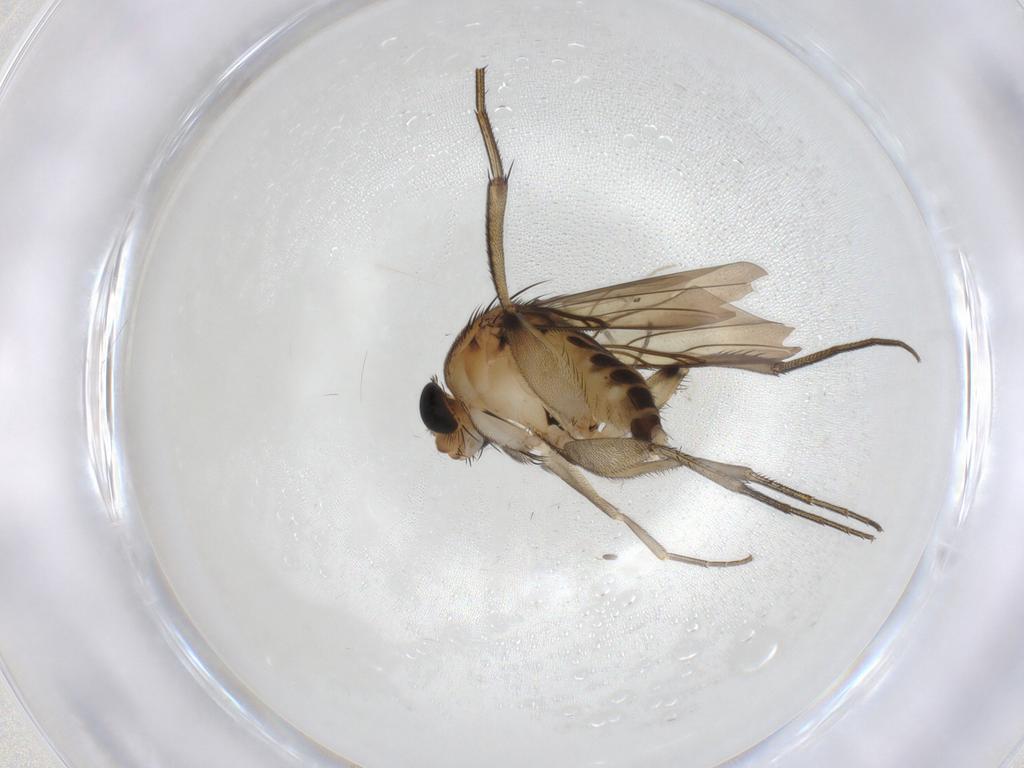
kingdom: Animalia
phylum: Arthropoda
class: Insecta
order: Diptera
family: Phoridae
